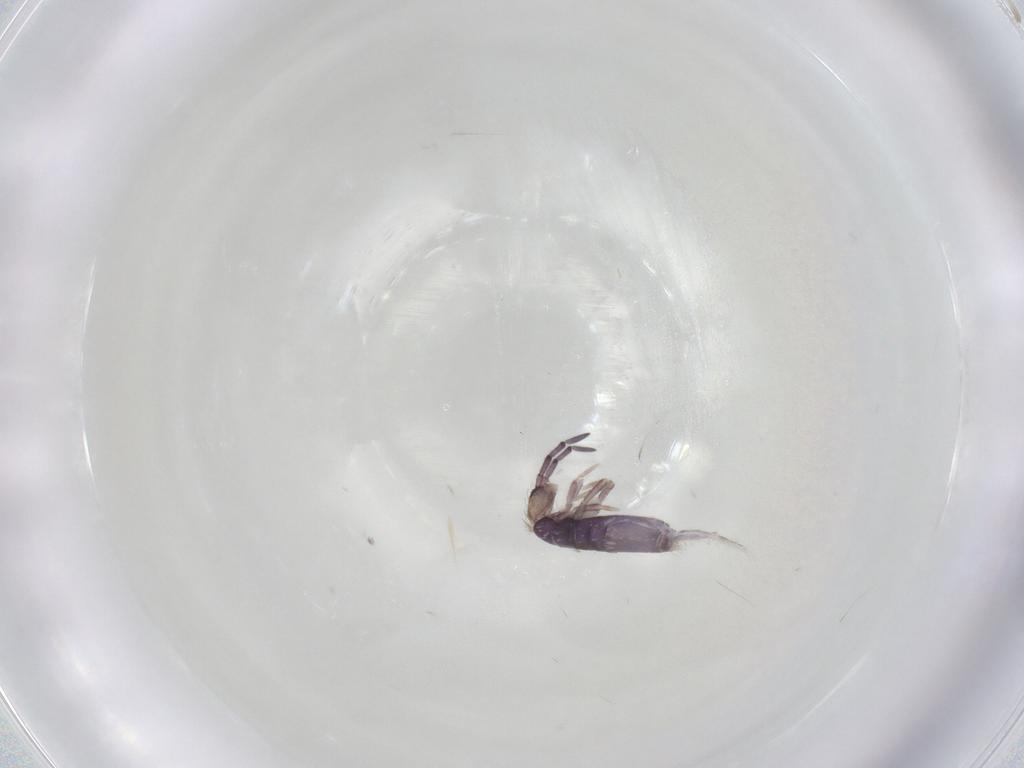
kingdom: Animalia
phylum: Arthropoda
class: Collembola
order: Entomobryomorpha
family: Entomobryidae
